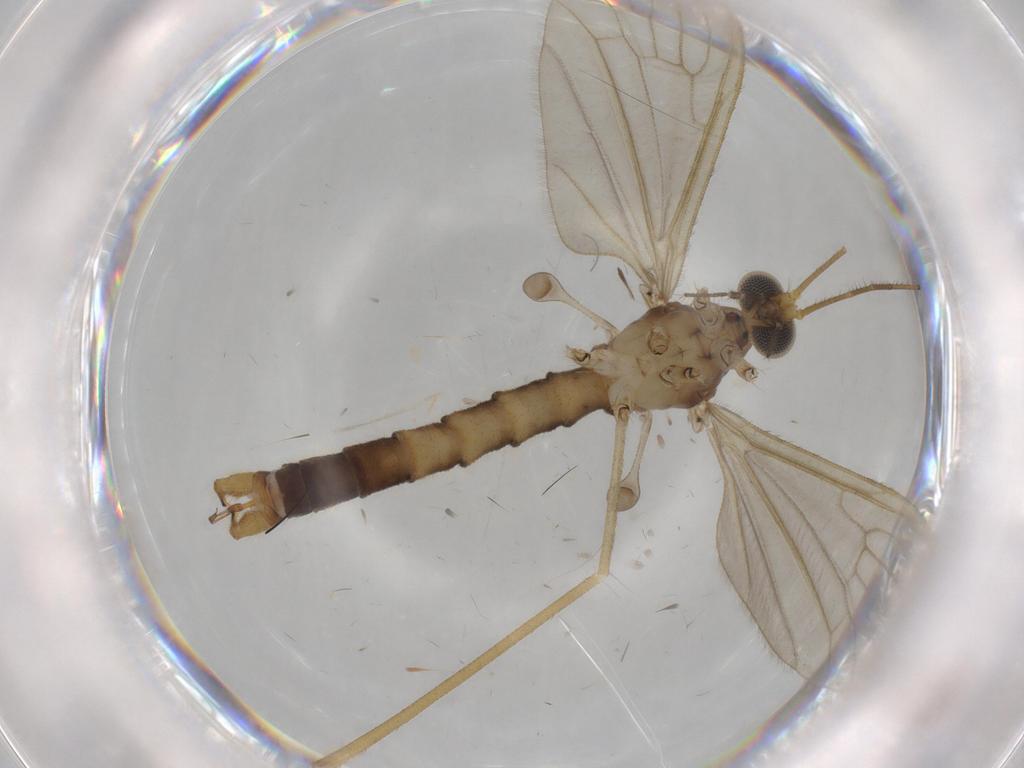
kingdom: Animalia
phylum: Arthropoda
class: Insecta
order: Diptera
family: Psychodidae
